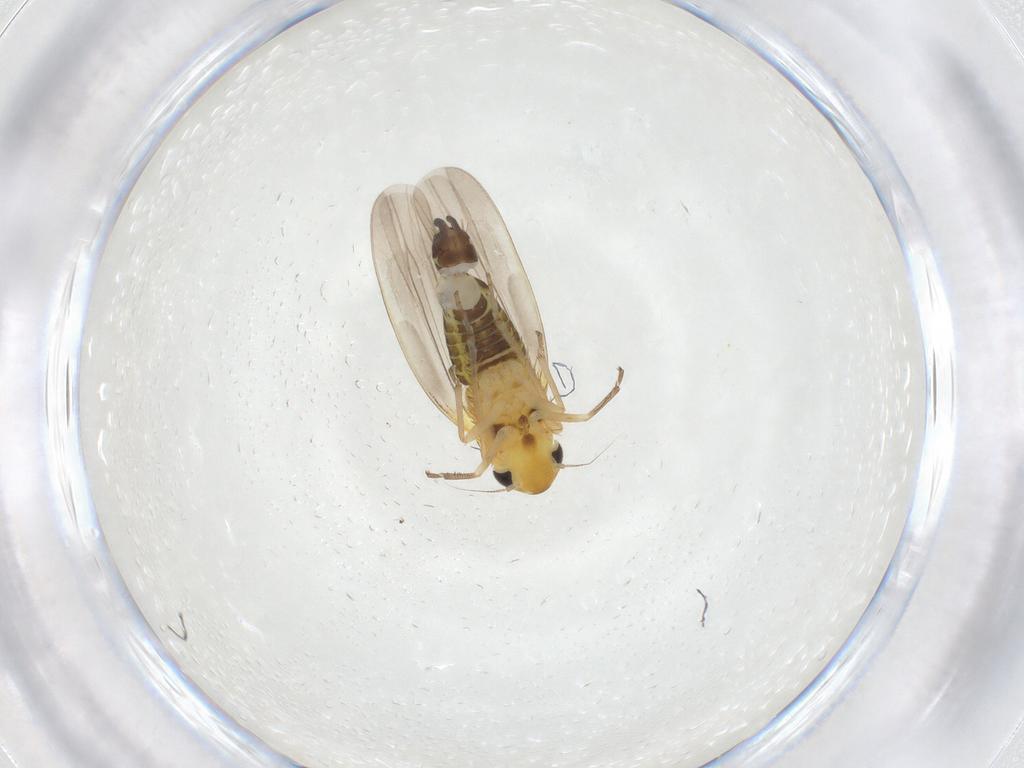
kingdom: Animalia
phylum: Arthropoda
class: Insecta
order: Hemiptera
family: Cicadellidae
